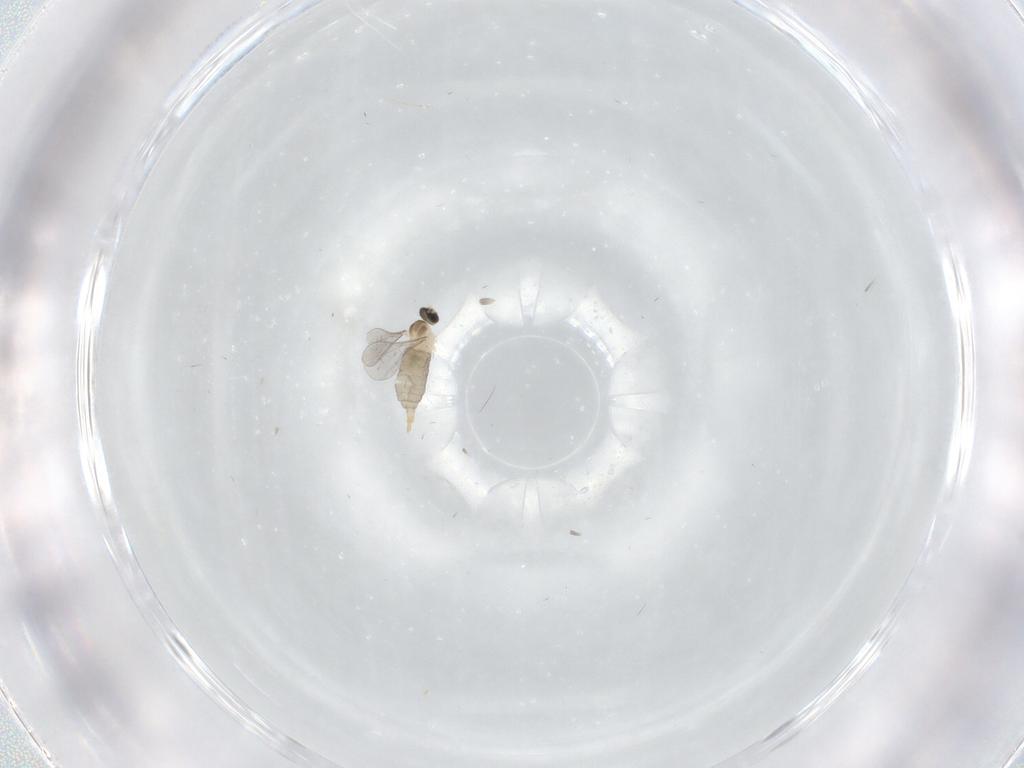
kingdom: Animalia
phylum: Arthropoda
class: Insecta
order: Diptera
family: Cecidomyiidae
